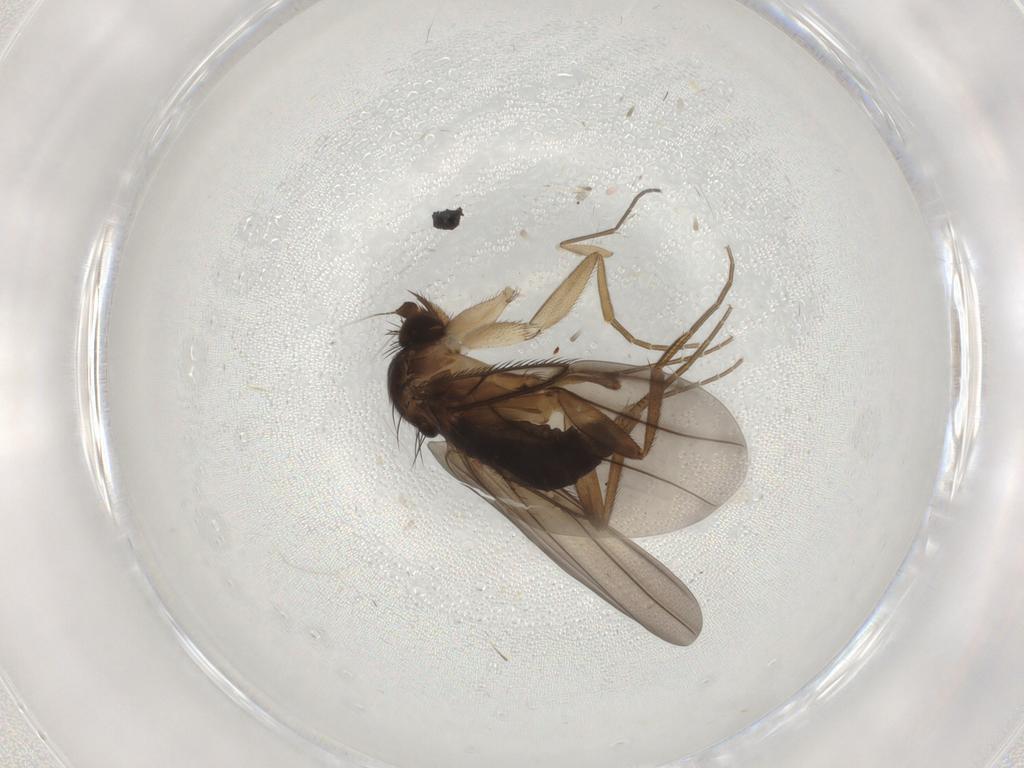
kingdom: Animalia
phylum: Arthropoda
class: Insecta
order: Diptera
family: Phoridae
